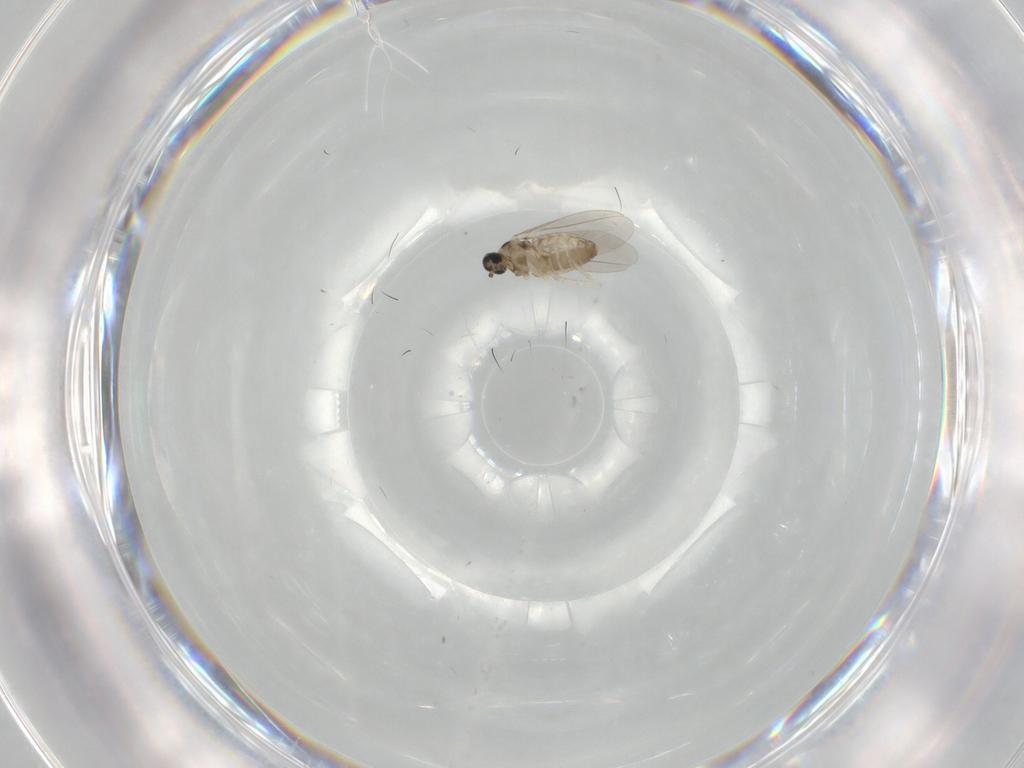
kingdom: Animalia
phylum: Arthropoda
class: Insecta
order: Diptera
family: Cecidomyiidae
